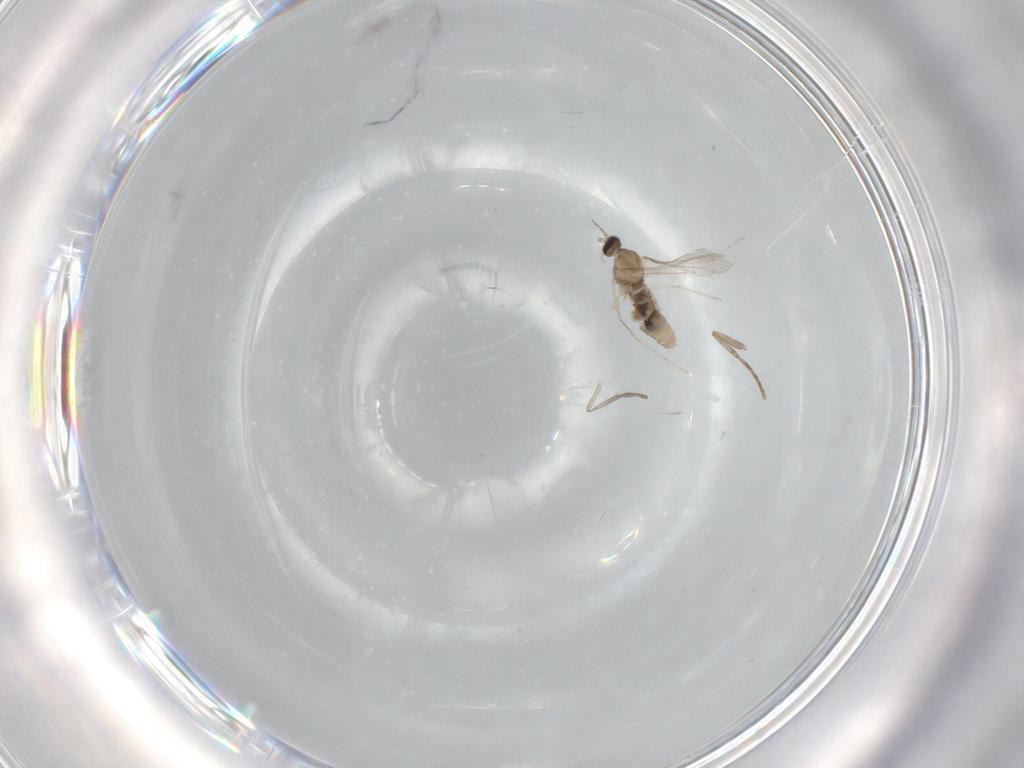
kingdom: Animalia
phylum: Arthropoda
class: Insecta
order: Diptera
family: Cecidomyiidae
